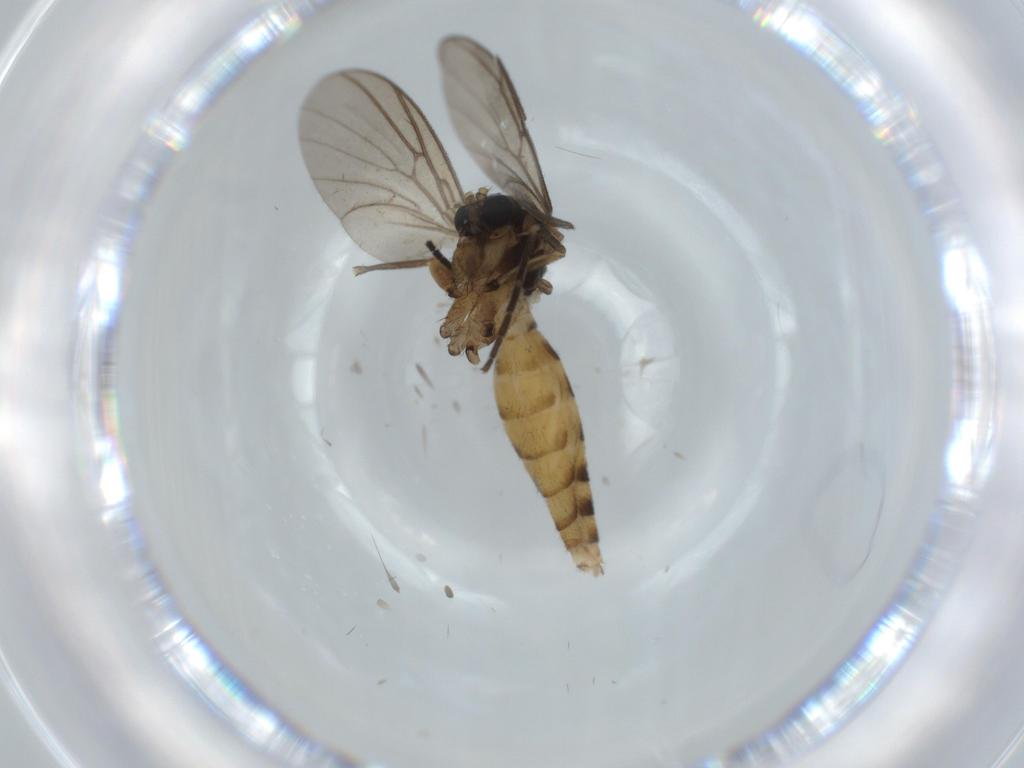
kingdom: Animalia
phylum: Arthropoda
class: Insecta
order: Diptera
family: Sciaridae
